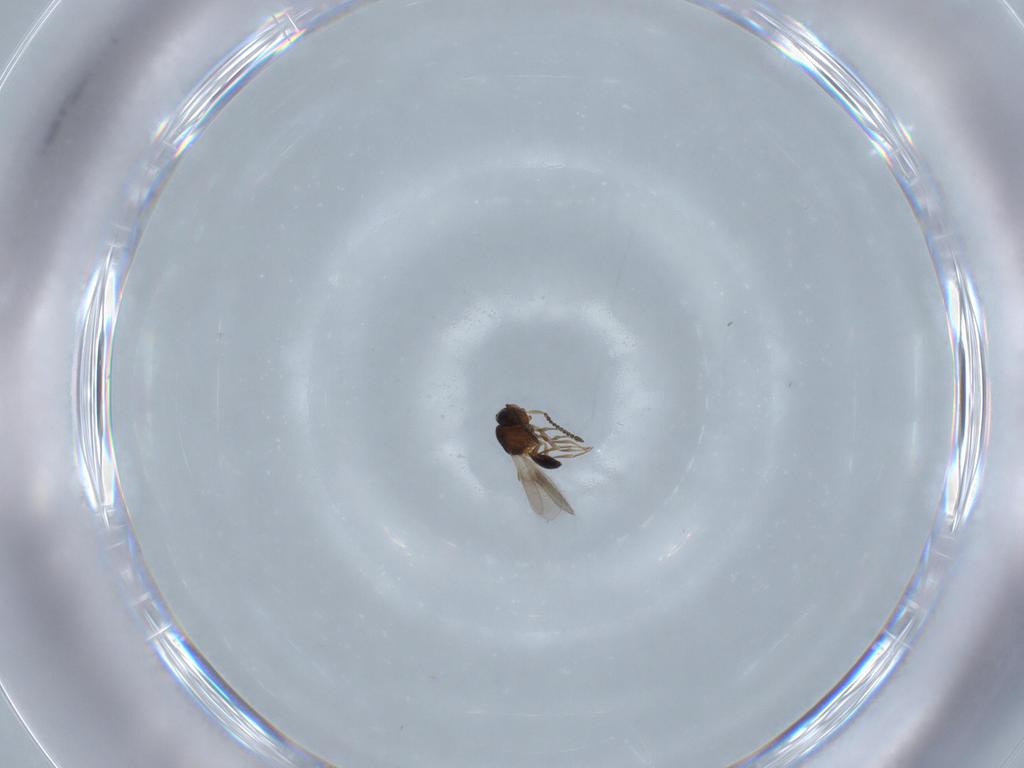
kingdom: Animalia
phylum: Arthropoda
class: Insecta
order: Hymenoptera
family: Scelionidae
